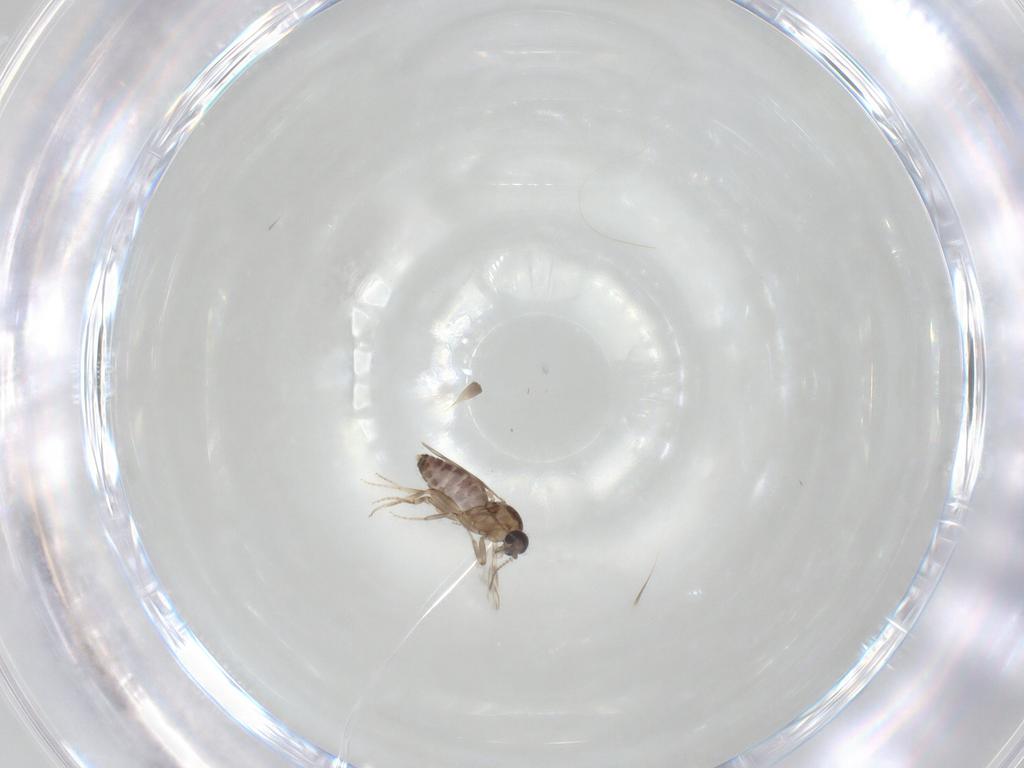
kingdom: Animalia
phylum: Arthropoda
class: Insecta
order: Diptera
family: Ceratopogonidae
